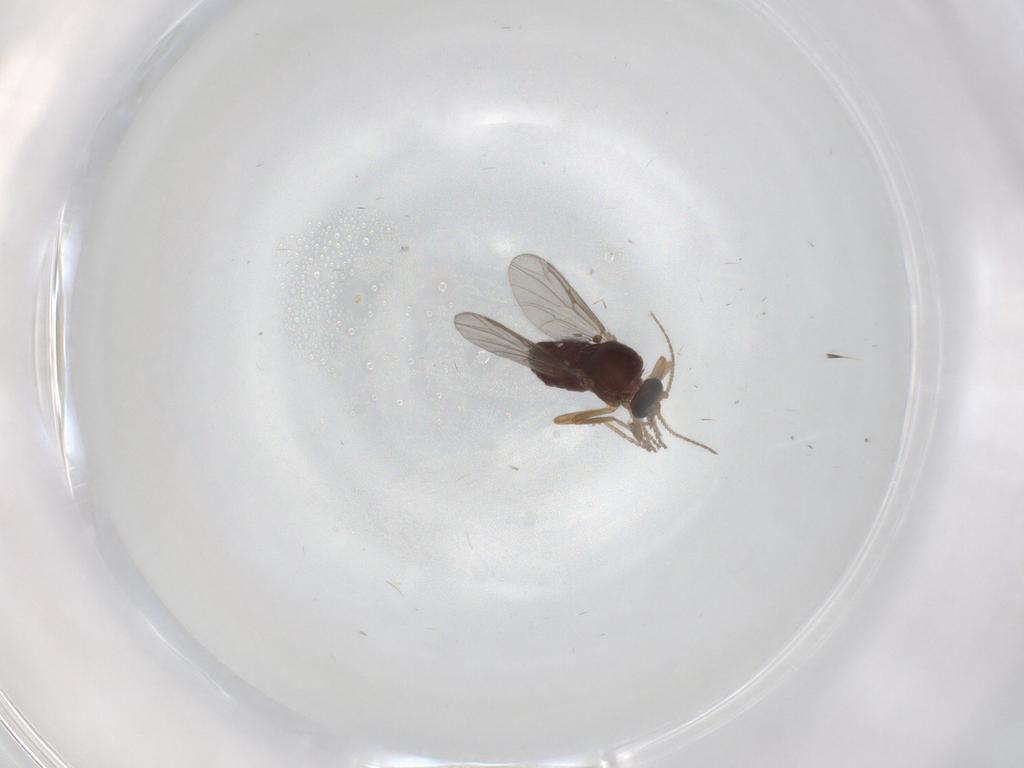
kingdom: Animalia
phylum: Arthropoda
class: Insecta
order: Diptera
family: Ceratopogonidae
